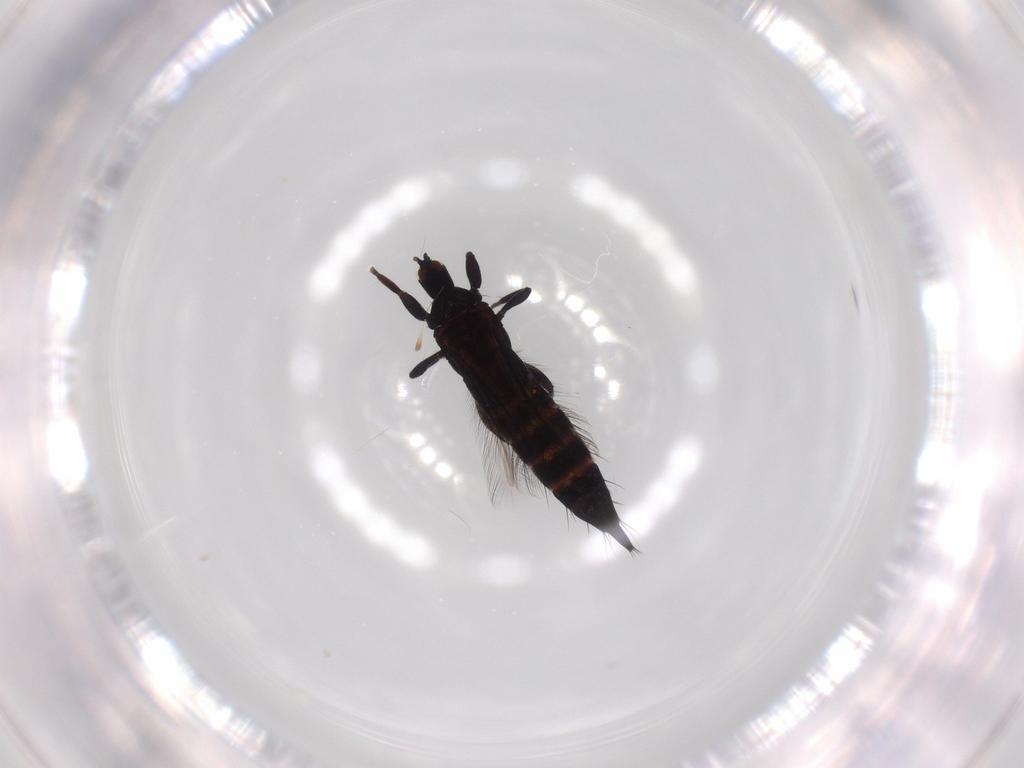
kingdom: Animalia
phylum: Arthropoda
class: Insecta
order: Thysanoptera
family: Phlaeothripidae
